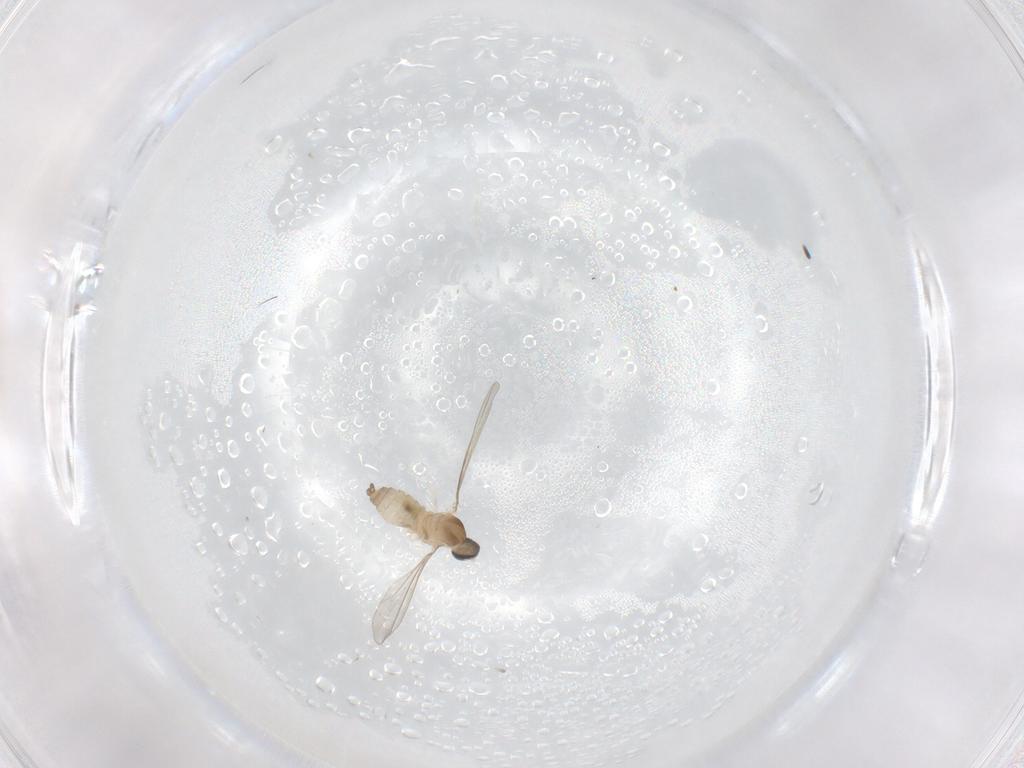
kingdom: Animalia
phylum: Arthropoda
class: Insecta
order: Diptera
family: Cecidomyiidae
